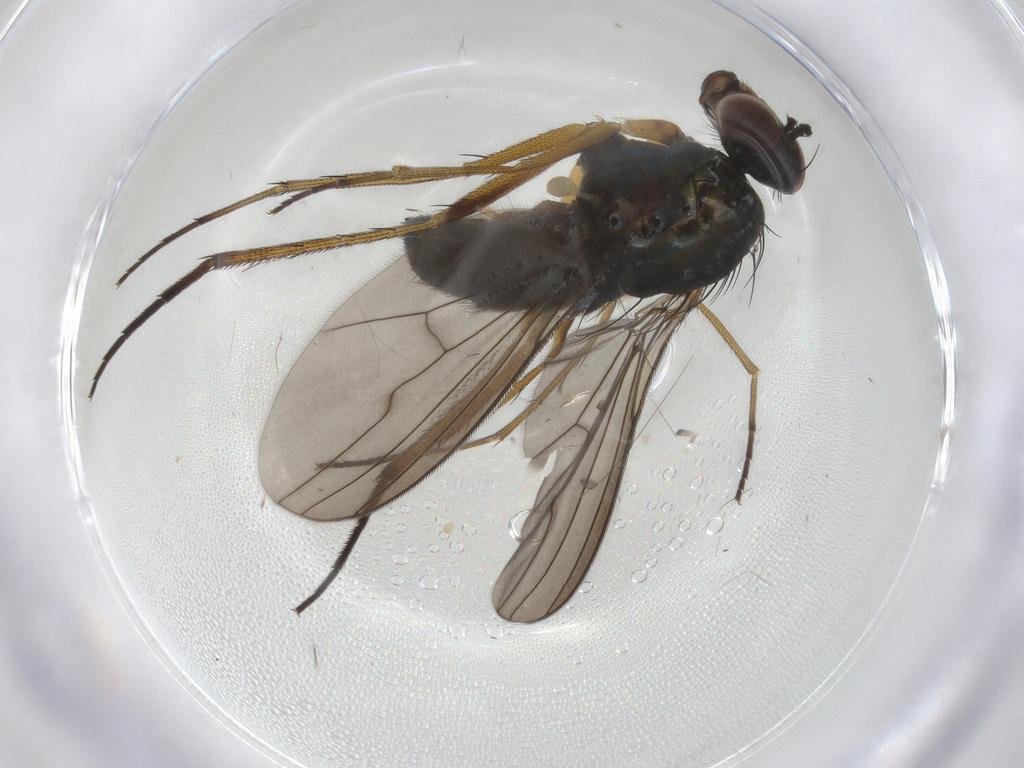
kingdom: Animalia
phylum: Arthropoda
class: Insecta
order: Diptera
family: Dolichopodidae
